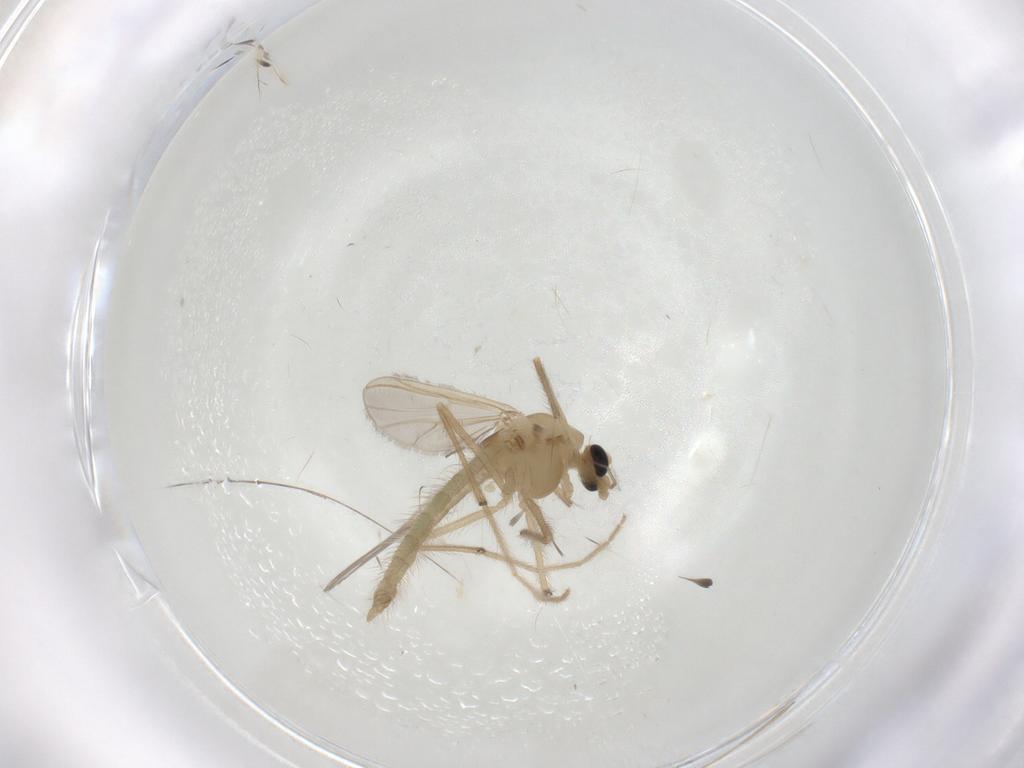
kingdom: Animalia
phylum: Arthropoda
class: Insecta
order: Diptera
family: Chironomidae
